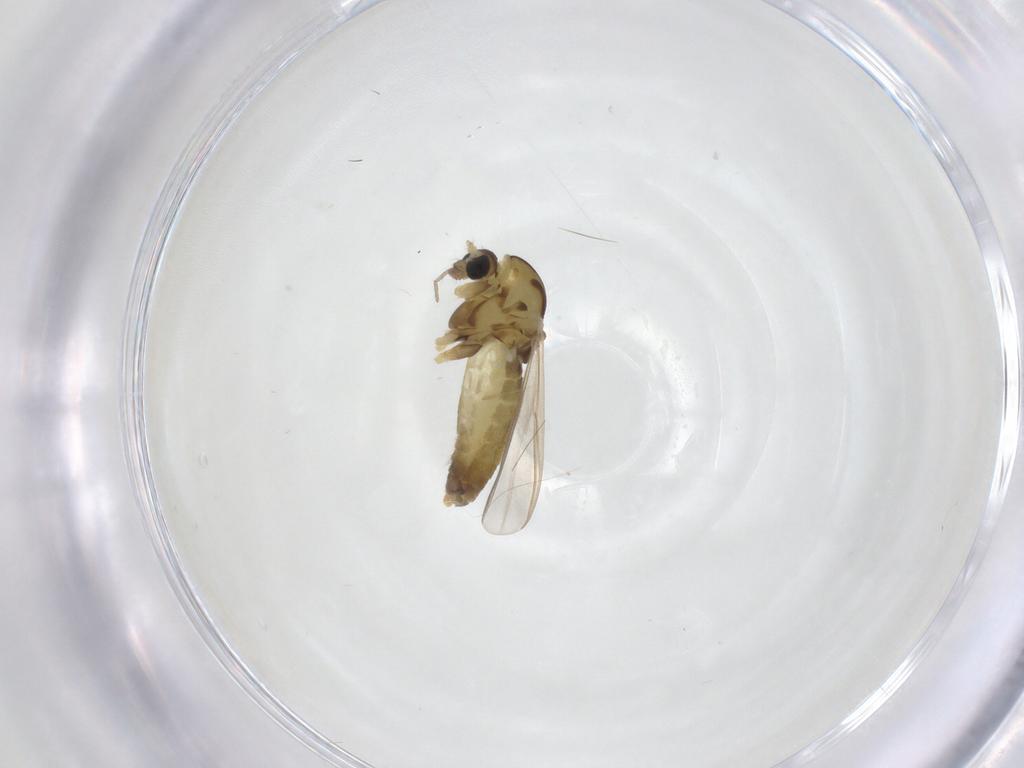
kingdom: Animalia
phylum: Arthropoda
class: Insecta
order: Diptera
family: Chironomidae
